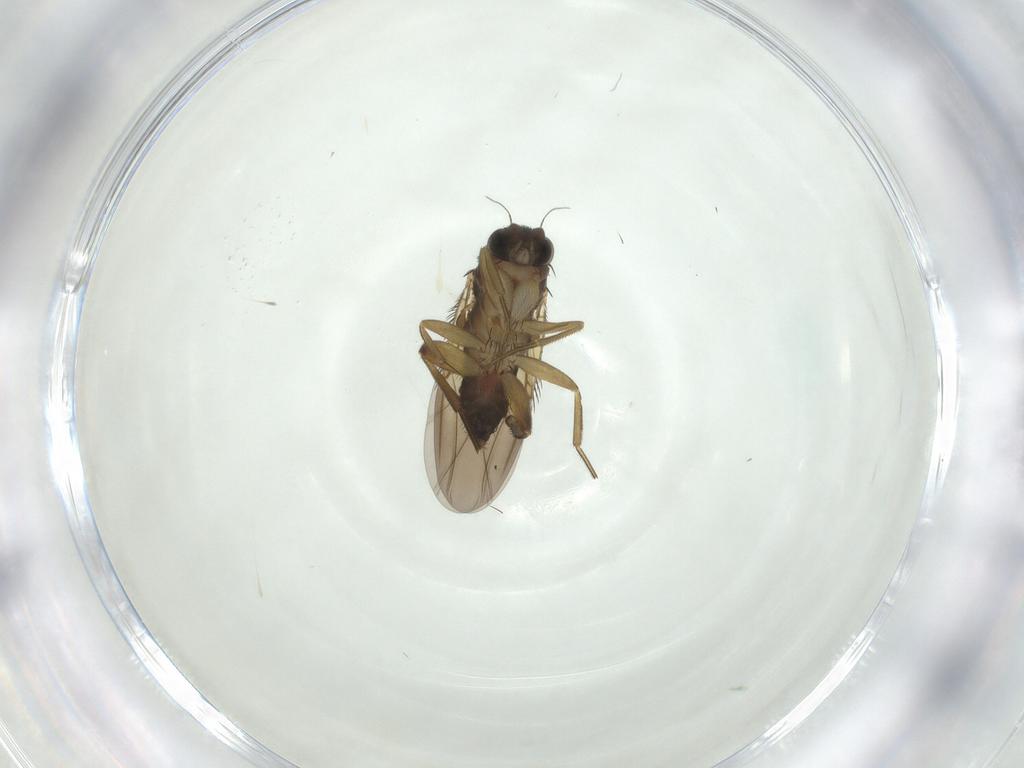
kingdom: Animalia
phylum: Arthropoda
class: Insecta
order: Diptera
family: Phoridae
